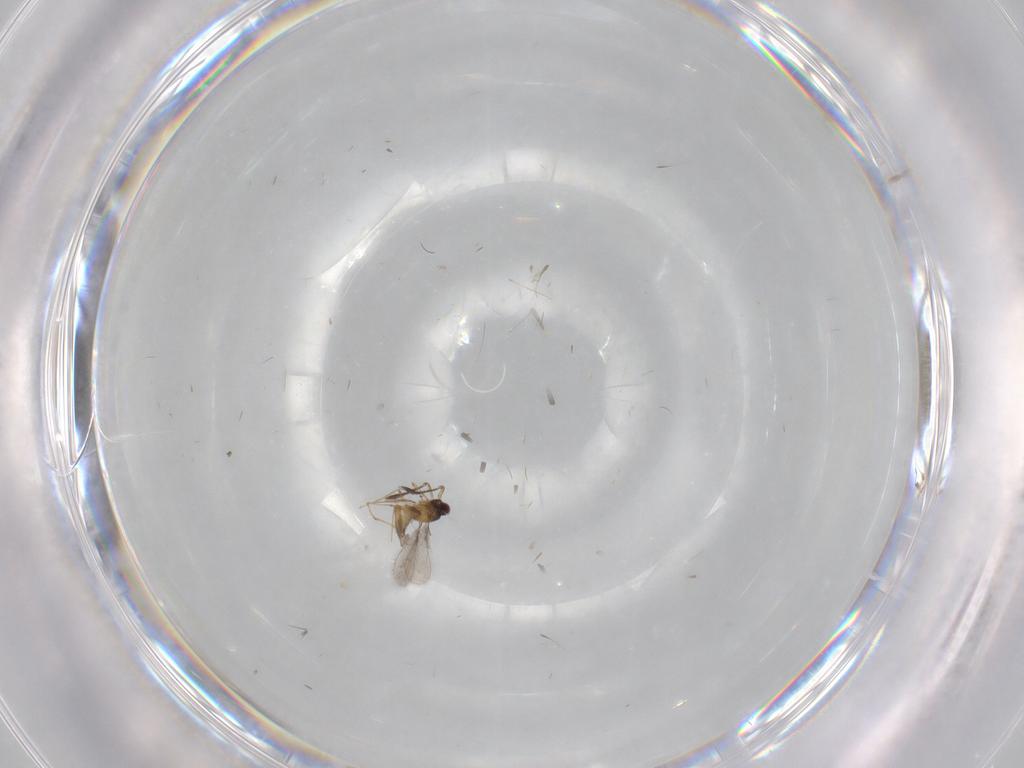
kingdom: Animalia
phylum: Arthropoda
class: Insecta
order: Hymenoptera
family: Mymaridae
